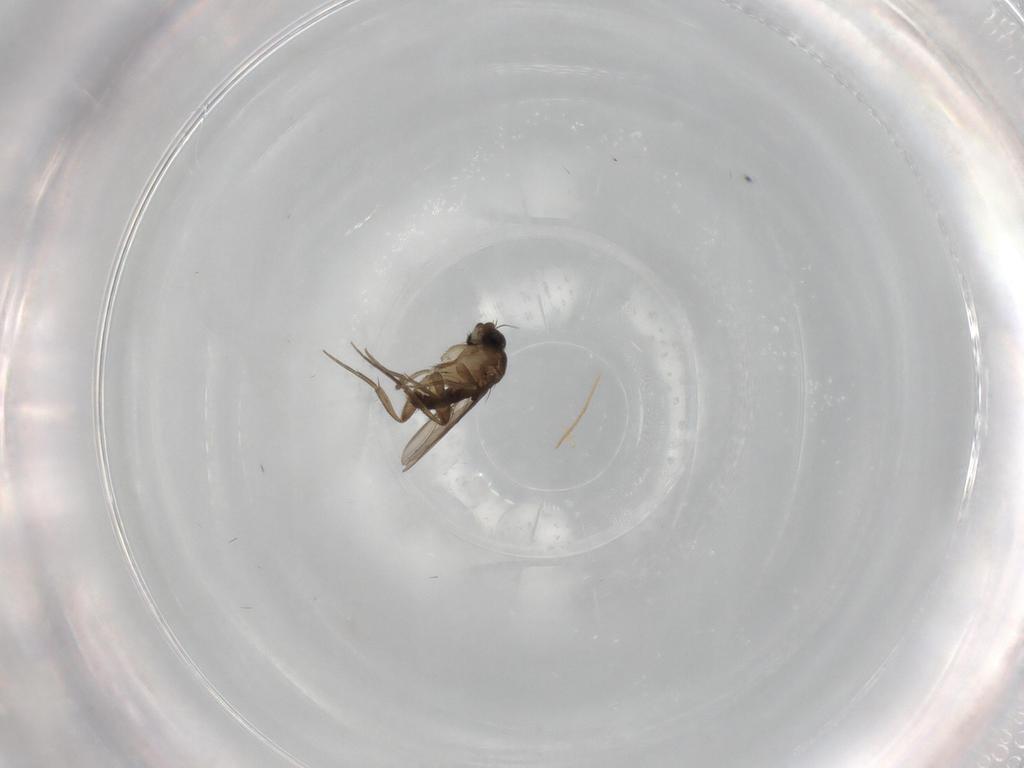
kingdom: Animalia
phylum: Arthropoda
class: Insecta
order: Diptera
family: Phoridae
